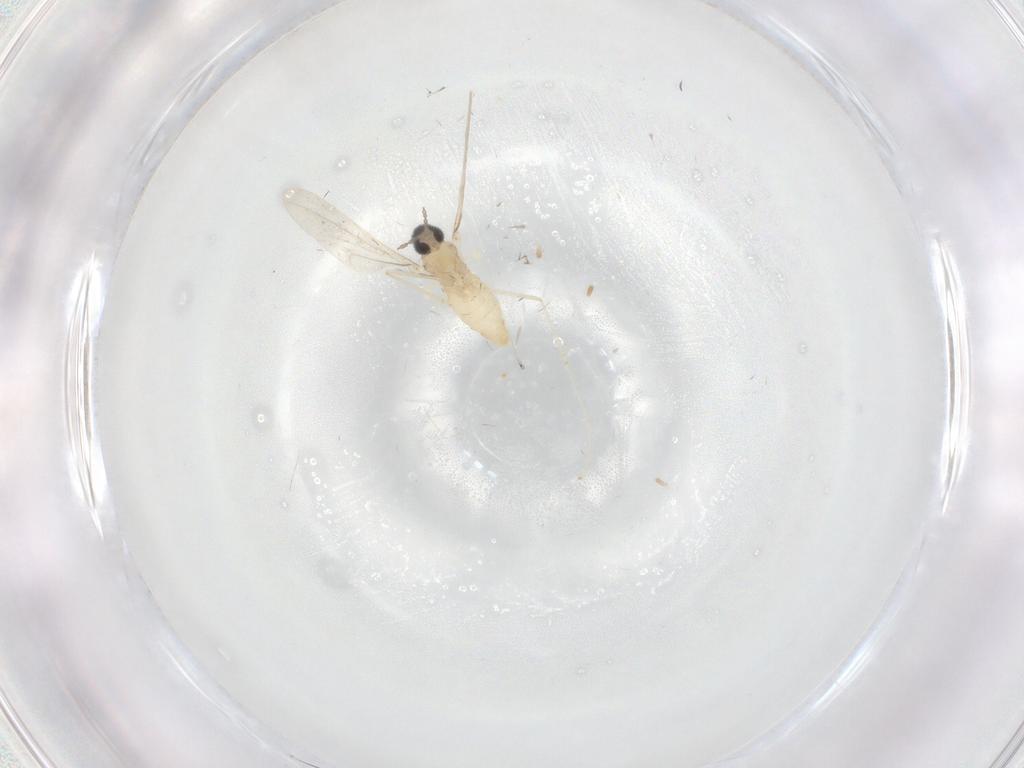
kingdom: Animalia
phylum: Arthropoda
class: Insecta
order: Diptera
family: Cecidomyiidae
